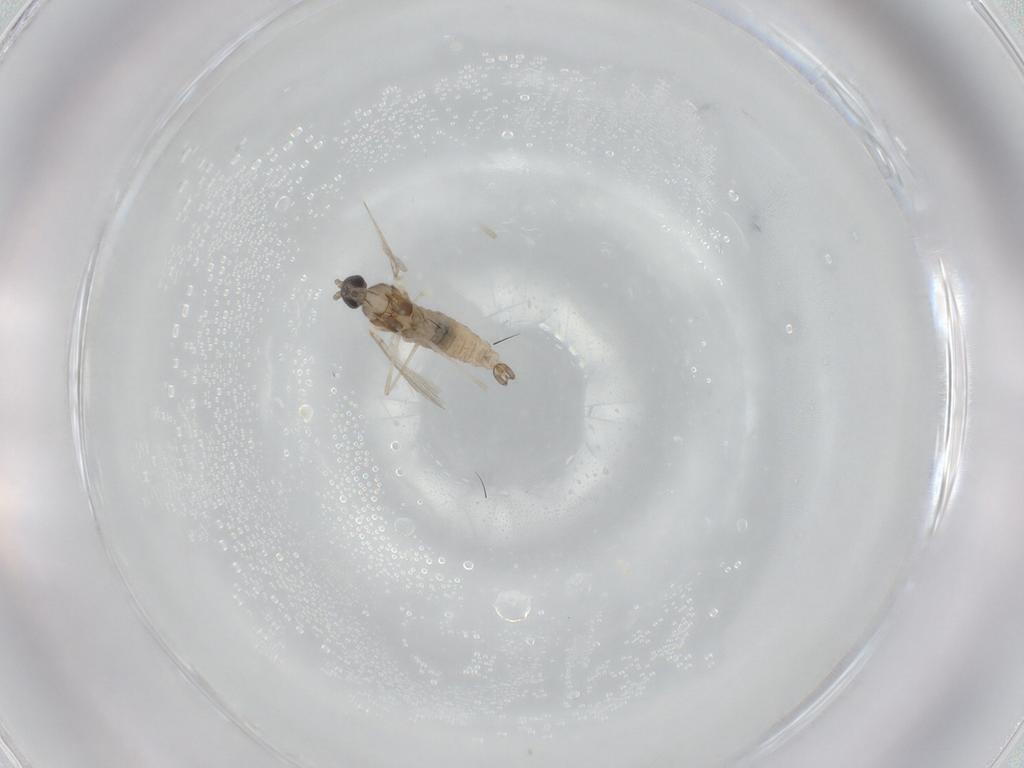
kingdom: Animalia
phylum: Arthropoda
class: Insecta
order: Diptera
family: Cecidomyiidae
